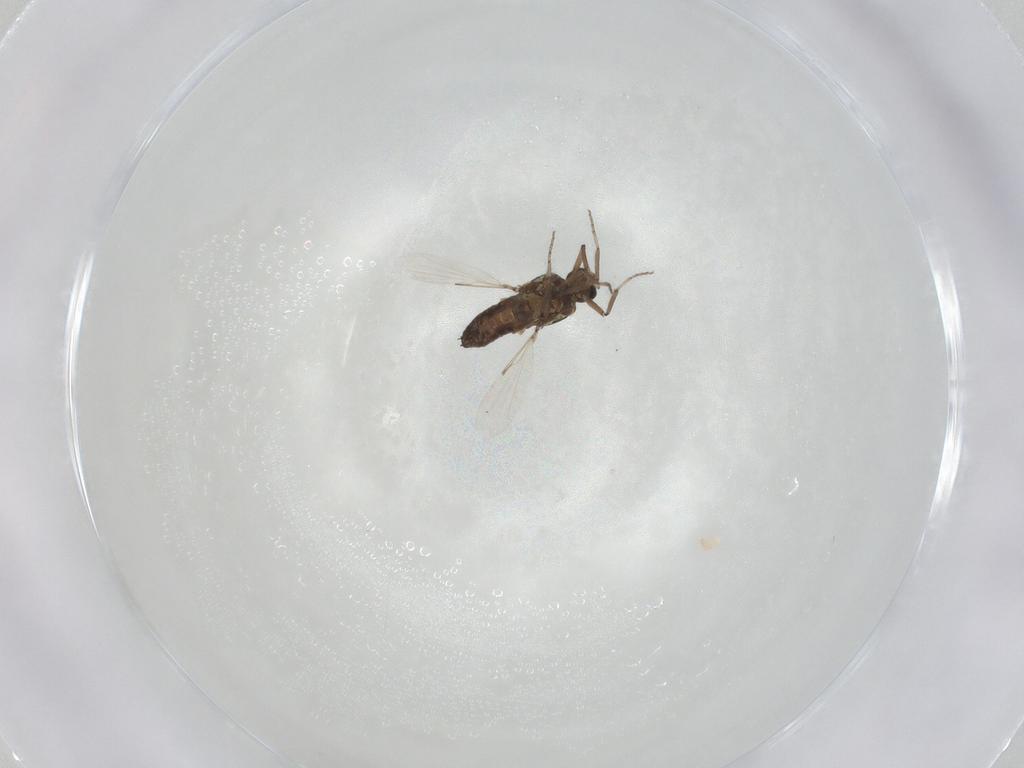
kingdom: Animalia
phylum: Arthropoda
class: Insecta
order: Diptera
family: Ceratopogonidae
